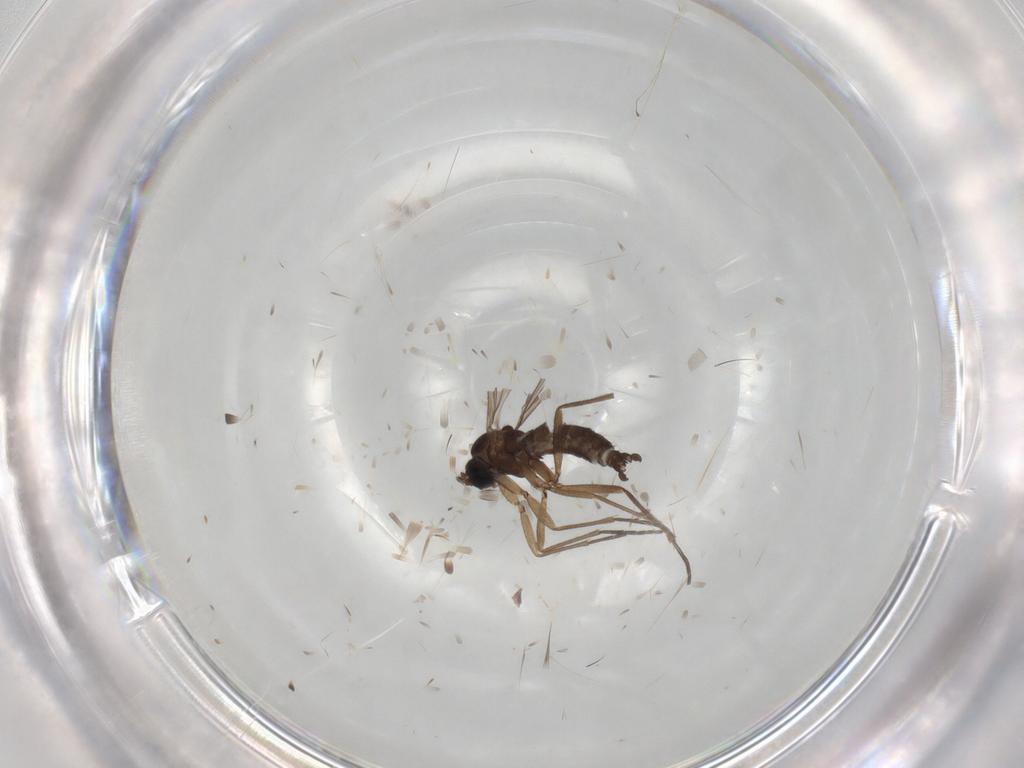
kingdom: Animalia
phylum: Arthropoda
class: Insecta
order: Diptera
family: Sciaridae
